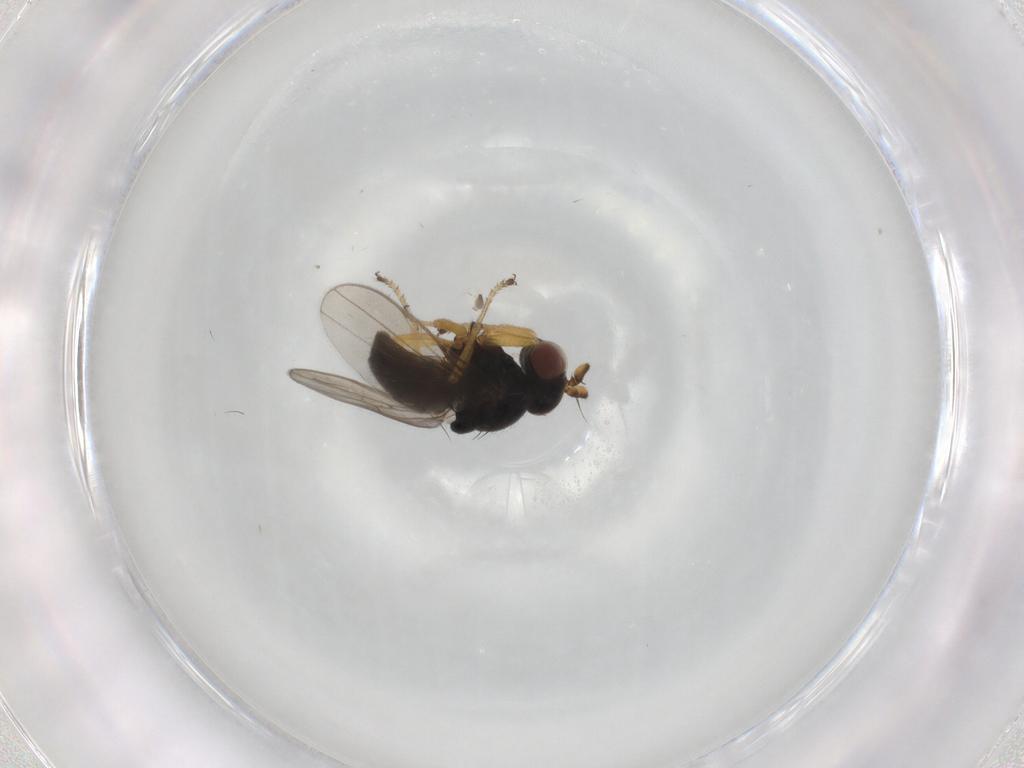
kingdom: Animalia
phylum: Arthropoda
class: Insecta
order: Diptera
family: Ephydridae
